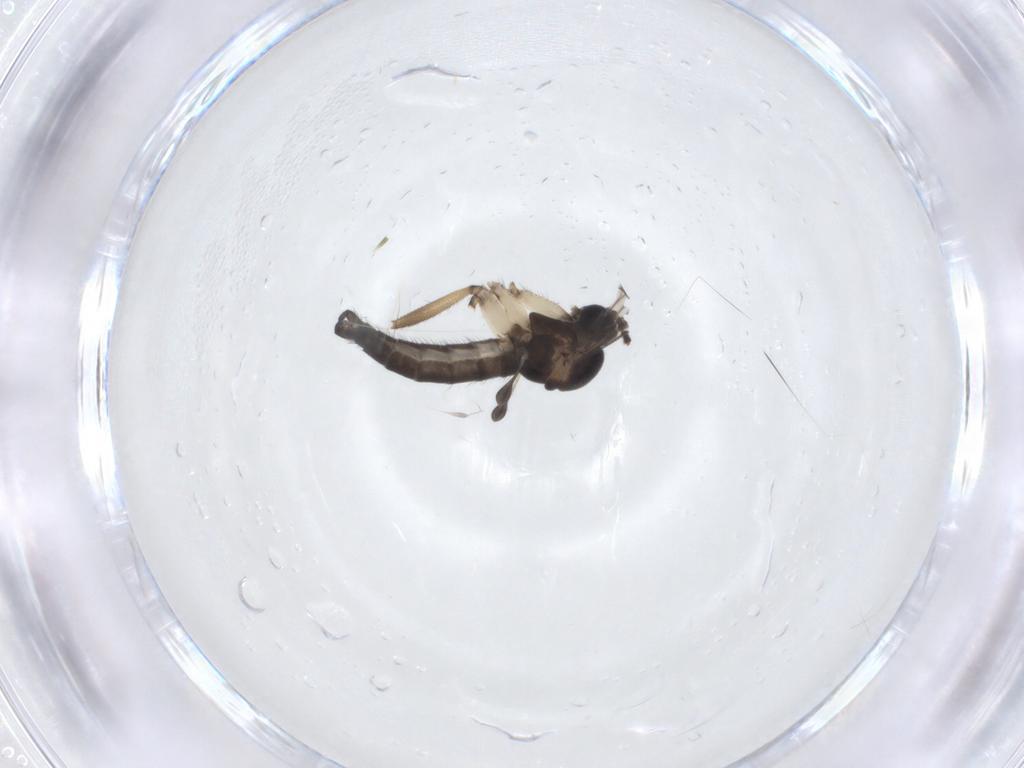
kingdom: Animalia
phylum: Arthropoda
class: Insecta
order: Diptera
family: Sciaridae
